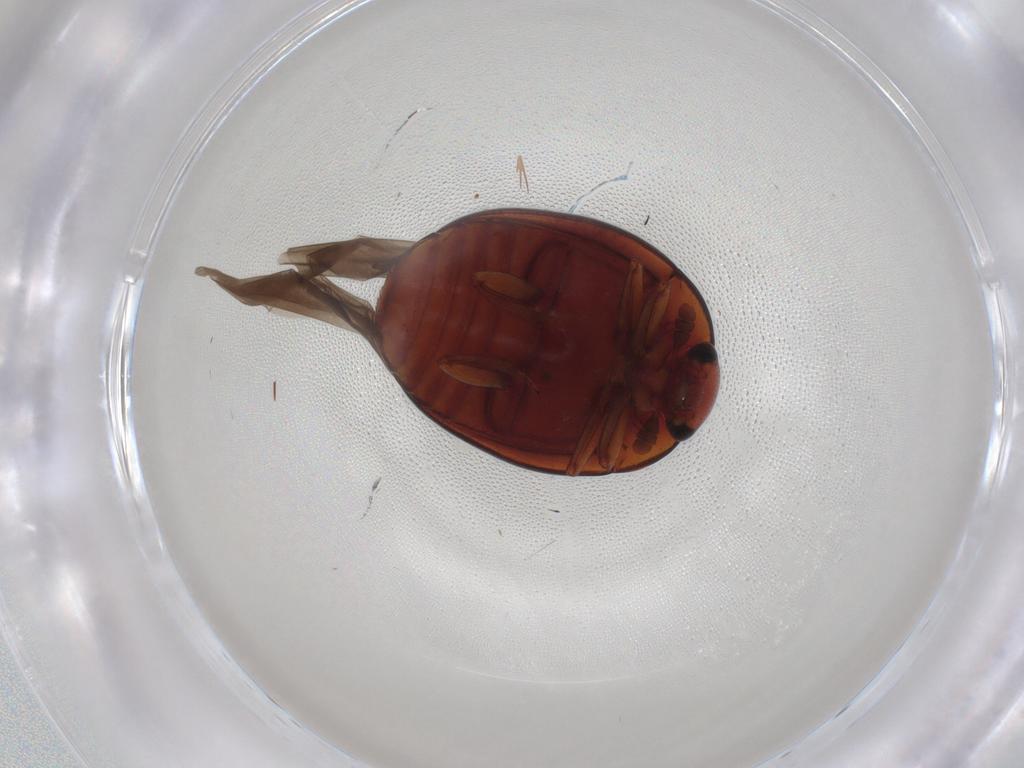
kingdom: Animalia
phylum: Arthropoda
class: Insecta
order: Coleoptera
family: Nitidulidae
